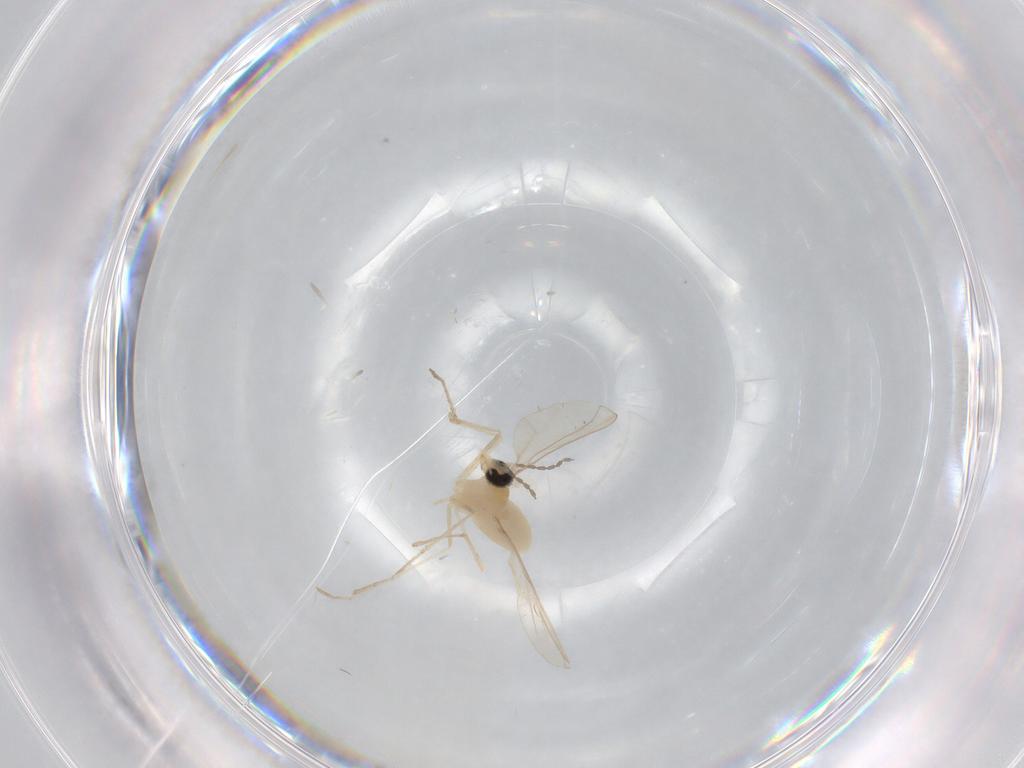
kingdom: Animalia
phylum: Arthropoda
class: Insecta
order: Diptera
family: Cecidomyiidae
